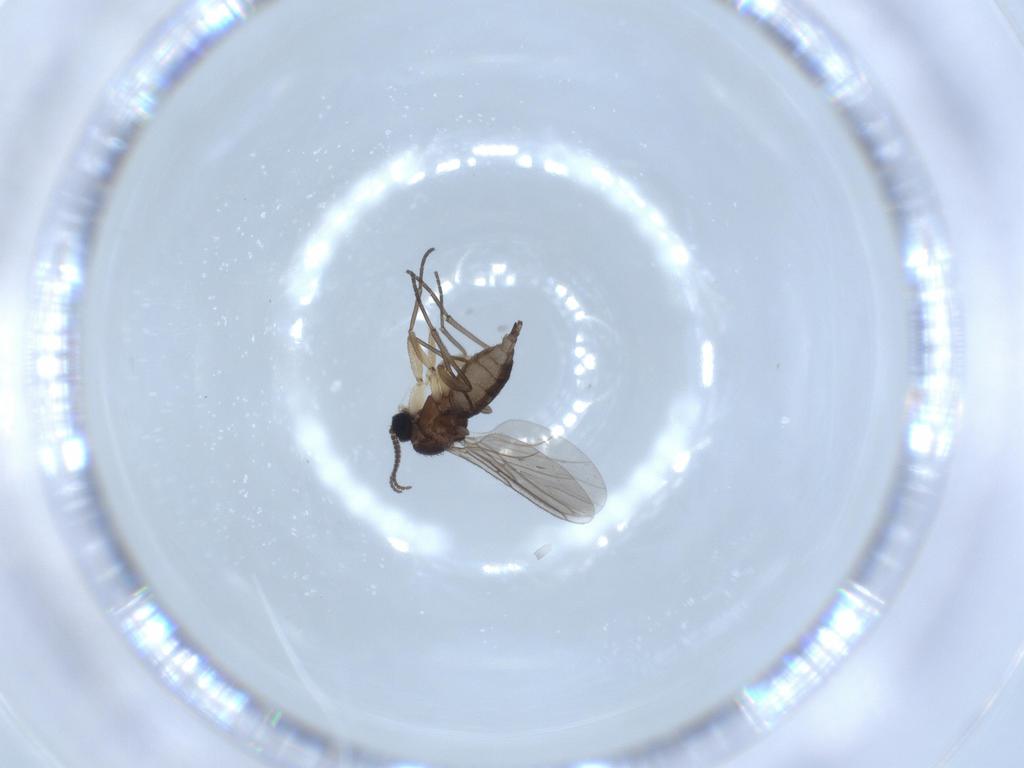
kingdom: Animalia
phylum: Arthropoda
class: Insecta
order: Diptera
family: Sciaridae
